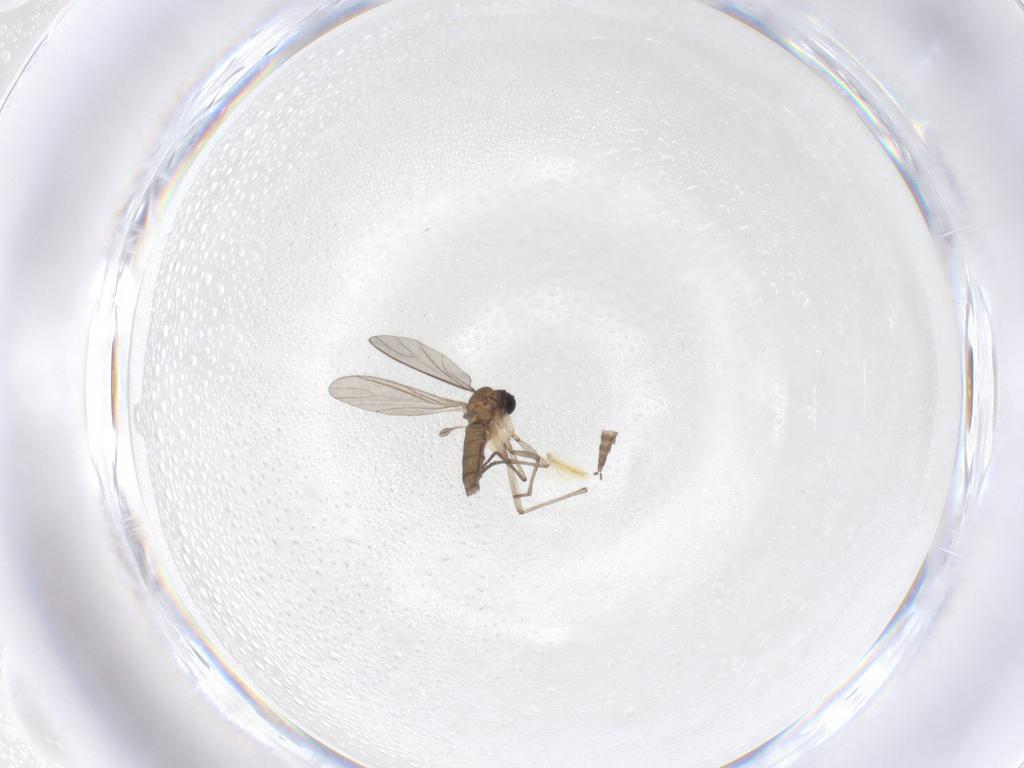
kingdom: Animalia
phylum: Arthropoda
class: Insecta
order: Diptera
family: Sciaridae
